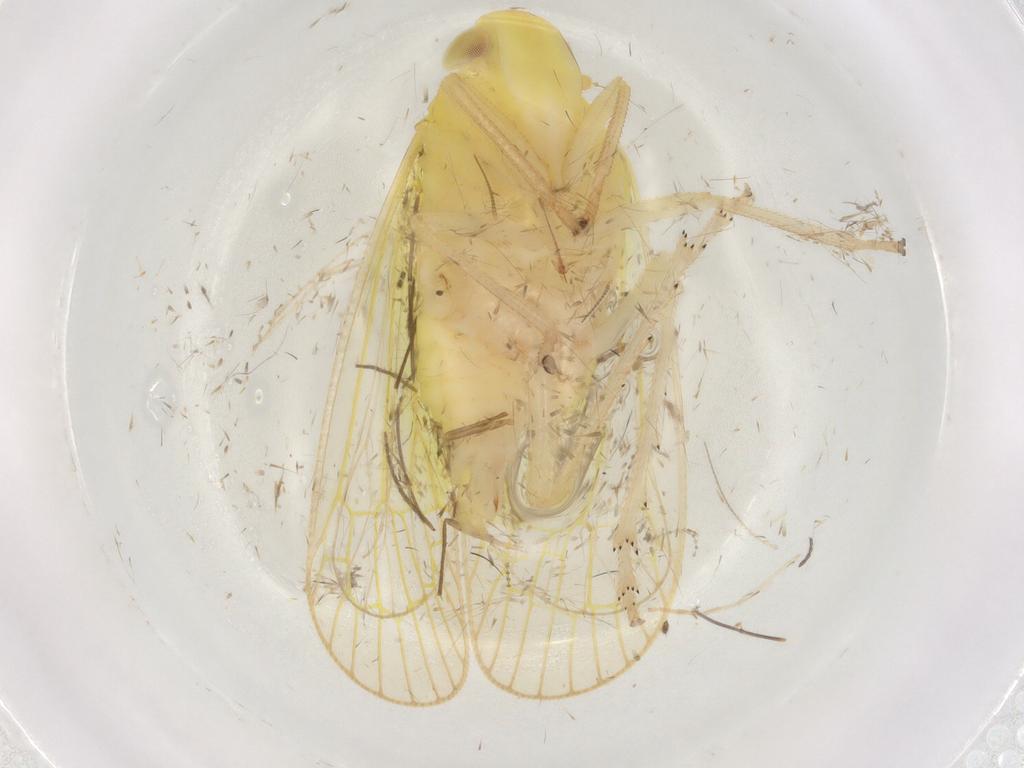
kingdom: Animalia
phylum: Arthropoda
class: Insecta
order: Hemiptera
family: Tropiduchidae
